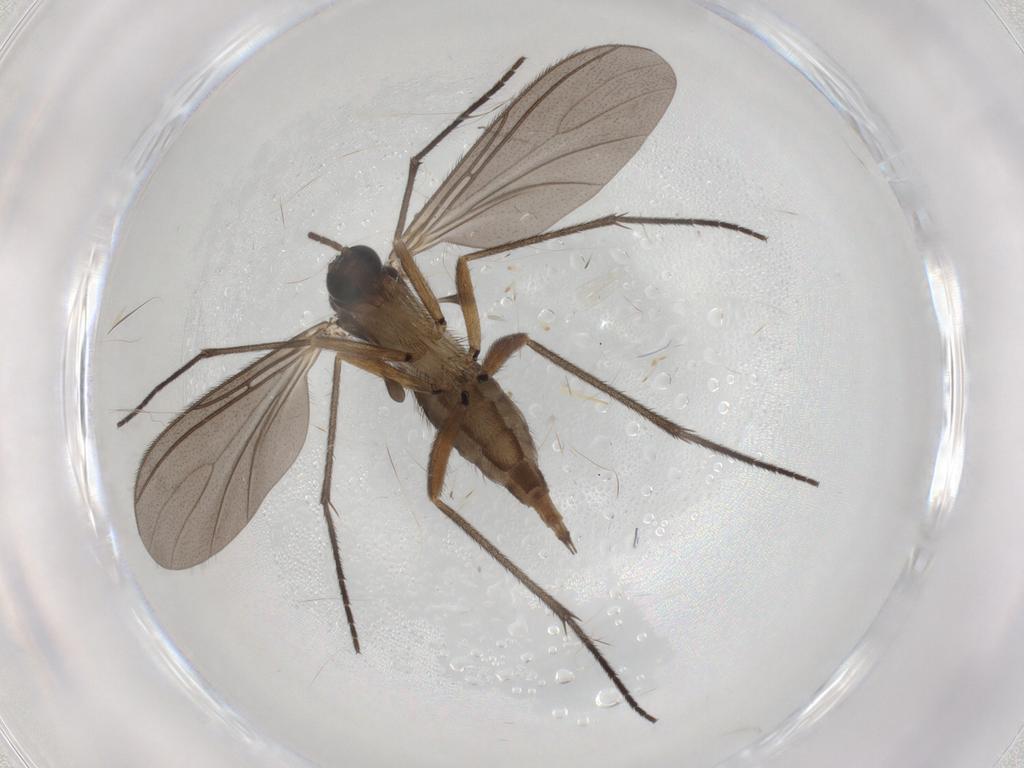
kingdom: Animalia
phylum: Arthropoda
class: Insecta
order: Diptera
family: Sciaridae
